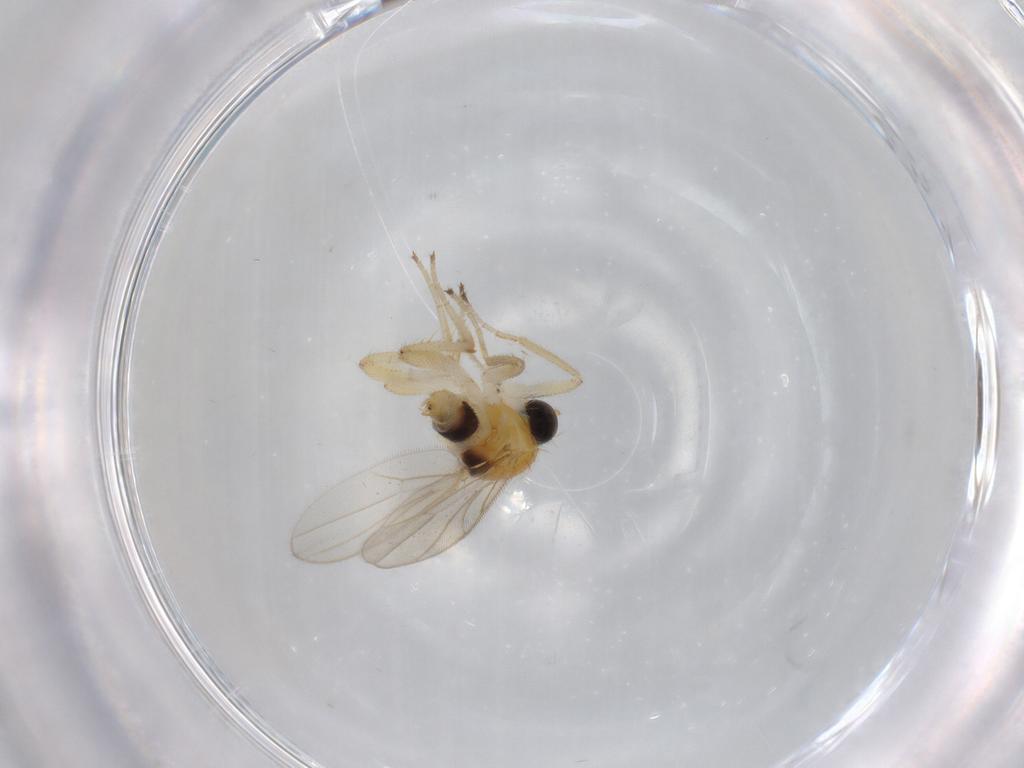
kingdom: Animalia
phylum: Arthropoda
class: Insecta
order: Diptera
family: Hybotidae
